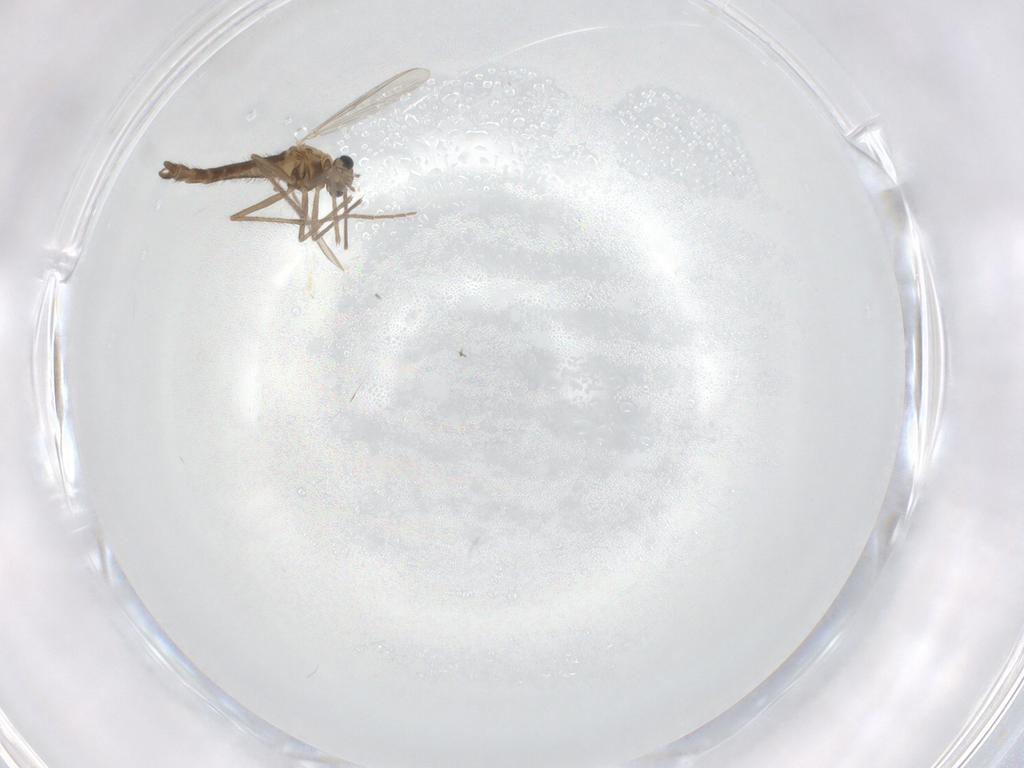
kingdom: Animalia
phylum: Arthropoda
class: Insecta
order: Diptera
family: Chironomidae
